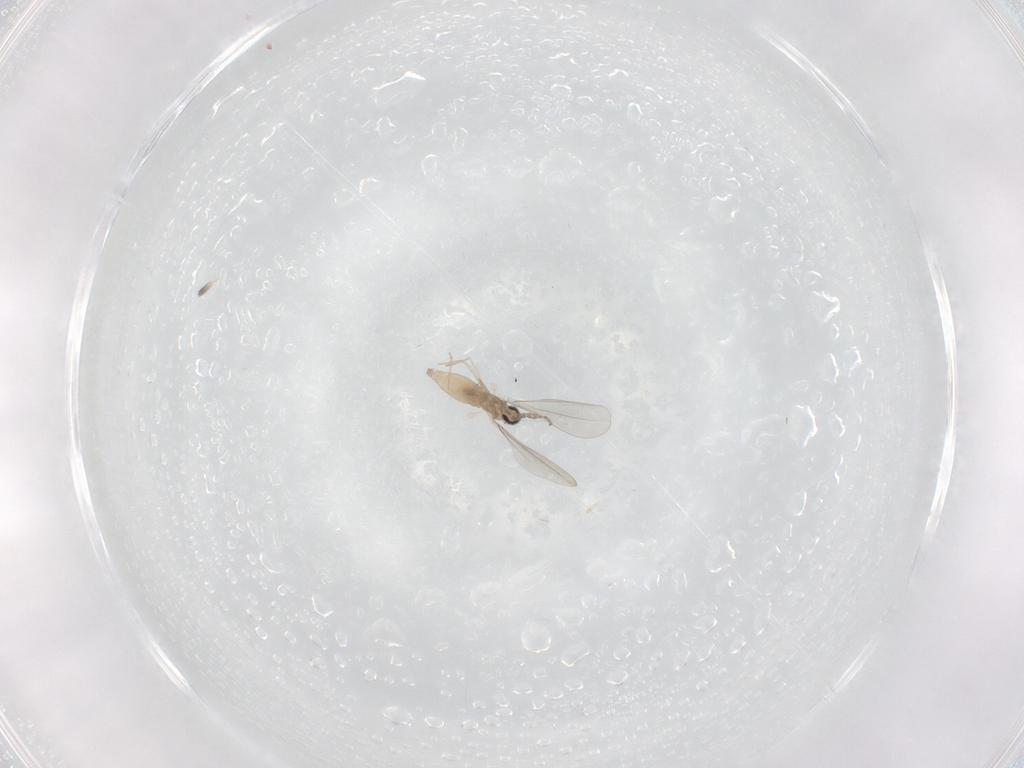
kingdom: Animalia
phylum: Arthropoda
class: Insecta
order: Diptera
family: Cecidomyiidae
